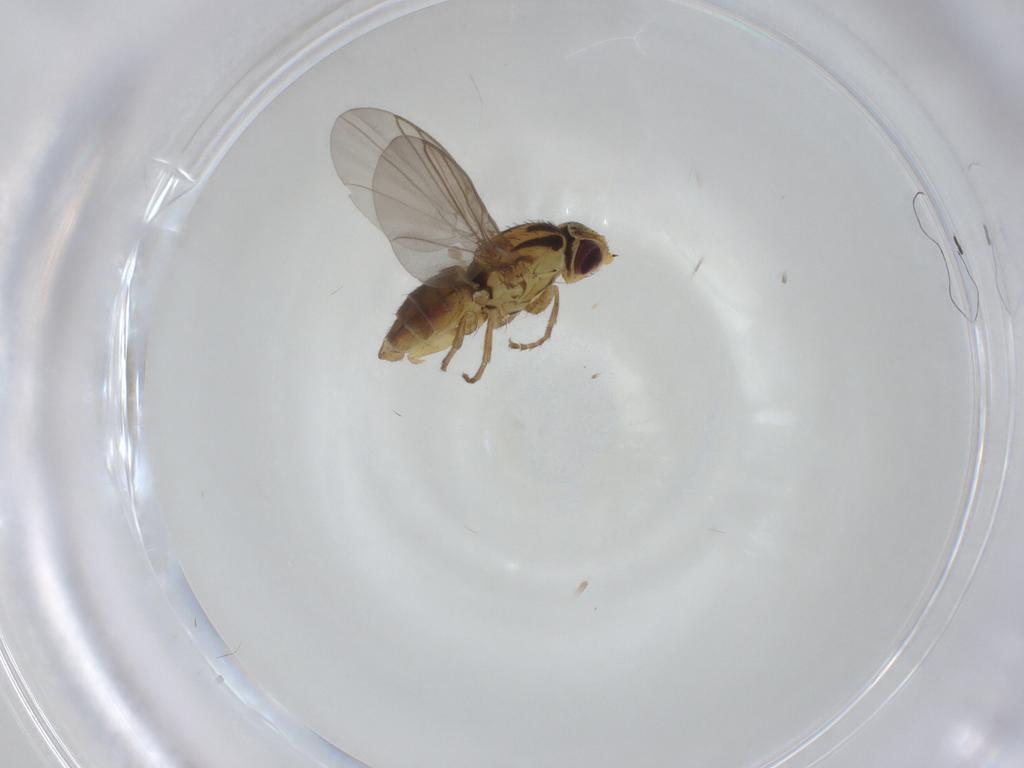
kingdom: Animalia
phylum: Arthropoda
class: Insecta
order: Diptera
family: Agromyzidae
